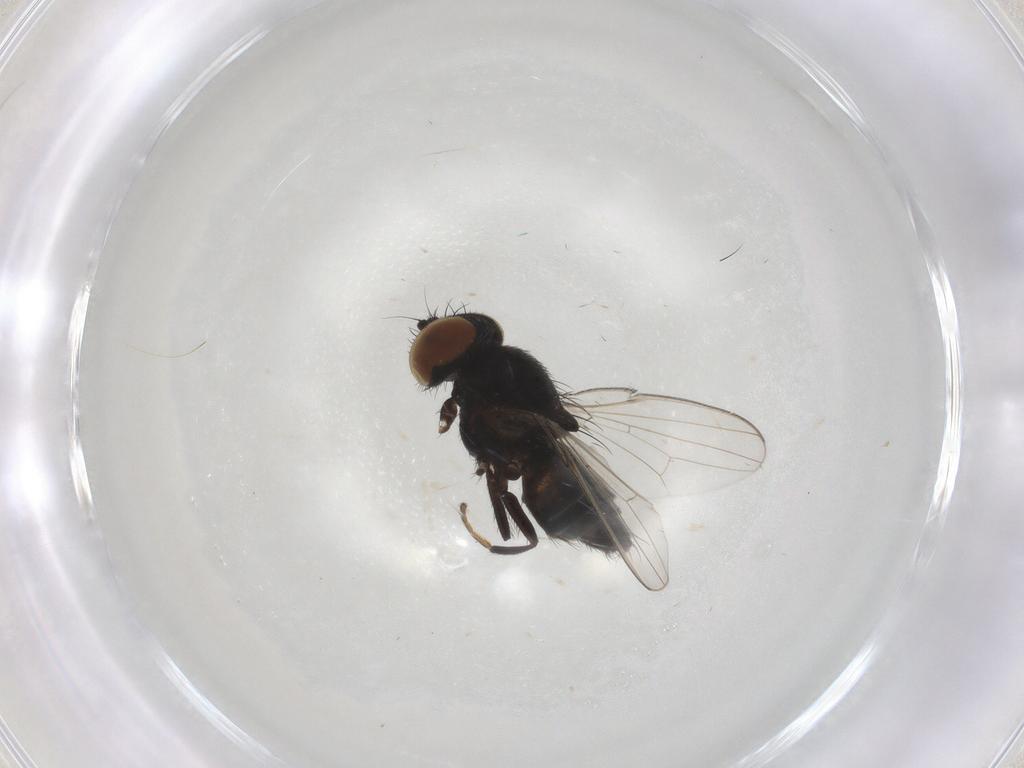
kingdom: Animalia
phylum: Arthropoda
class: Insecta
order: Diptera
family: Milichiidae
